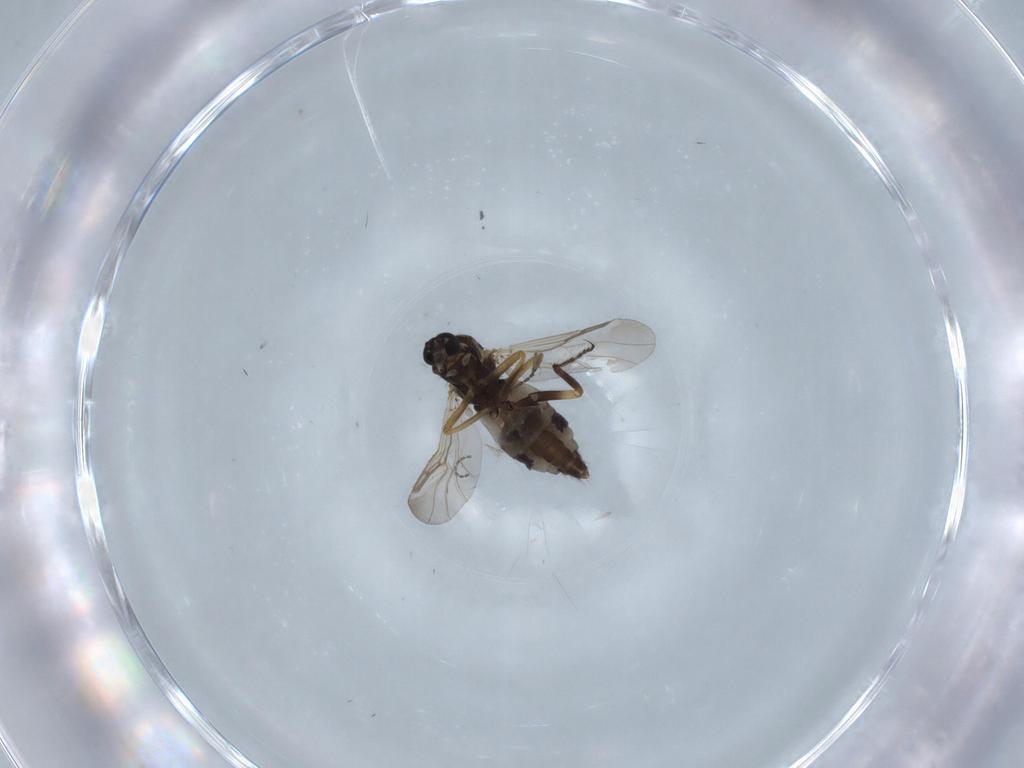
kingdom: Animalia
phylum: Arthropoda
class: Insecta
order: Diptera
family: Ceratopogonidae
